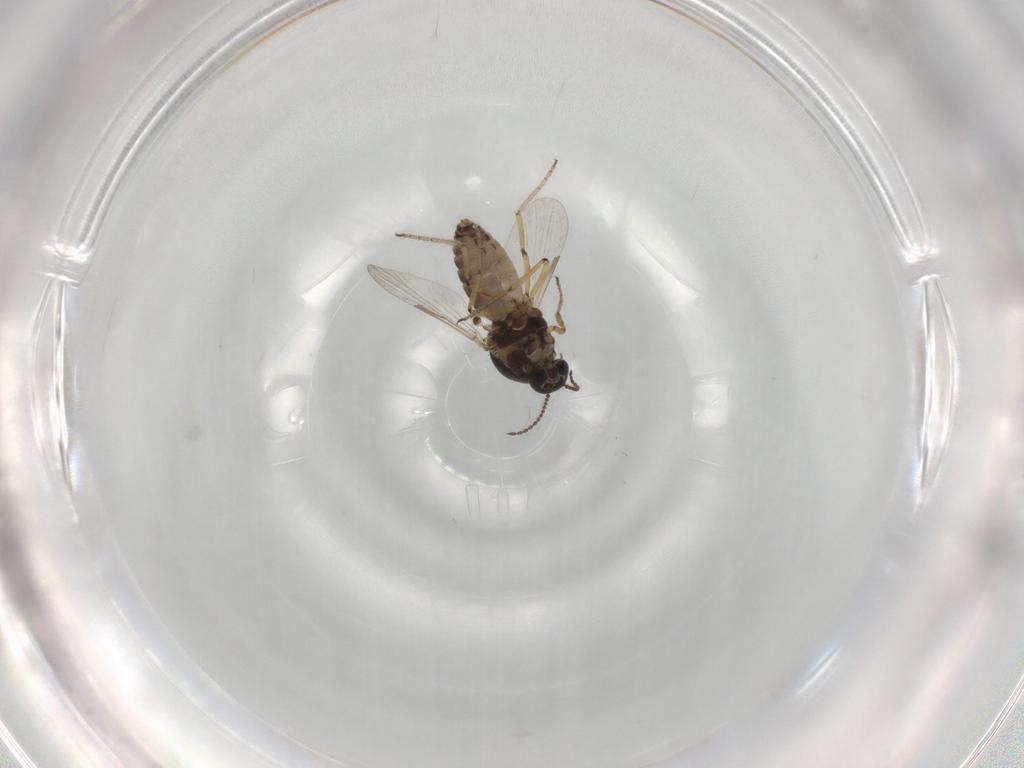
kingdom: Animalia
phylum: Arthropoda
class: Insecta
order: Diptera
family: Ceratopogonidae
